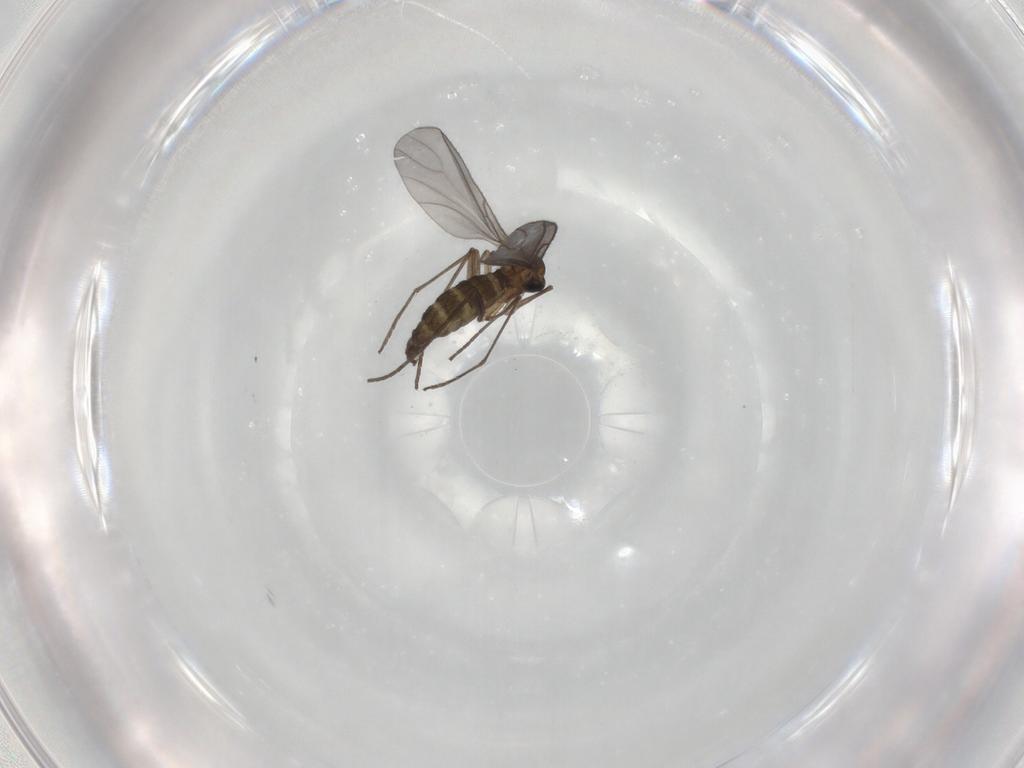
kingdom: Animalia
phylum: Arthropoda
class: Insecta
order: Diptera
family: Sciaridae
